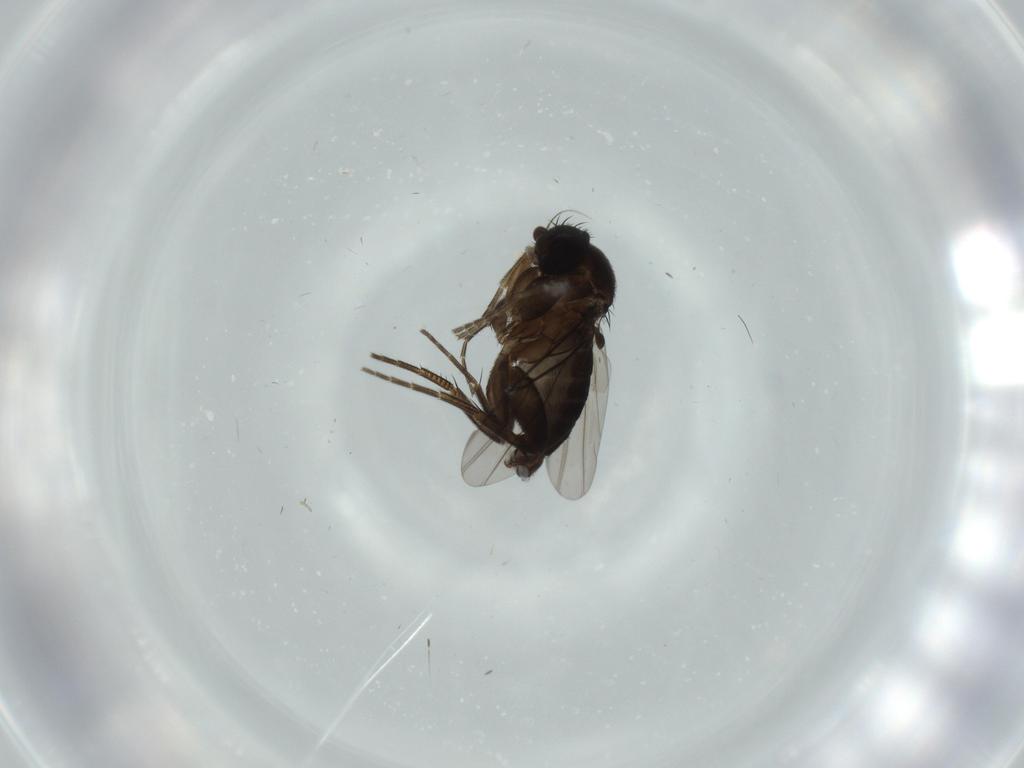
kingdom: Animalia
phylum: Arthropoda
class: Insecta
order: Diptera
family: Phoridae
